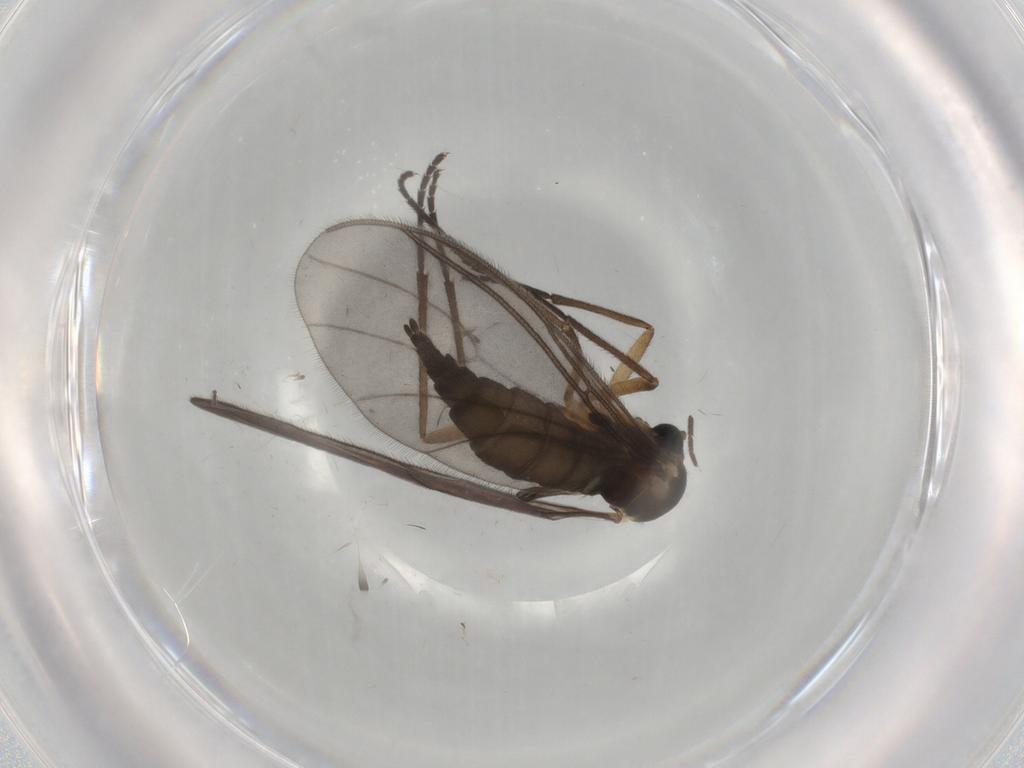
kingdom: Animalia
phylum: Arthropoda
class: Insecta
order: Diptera
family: Sciaridae
